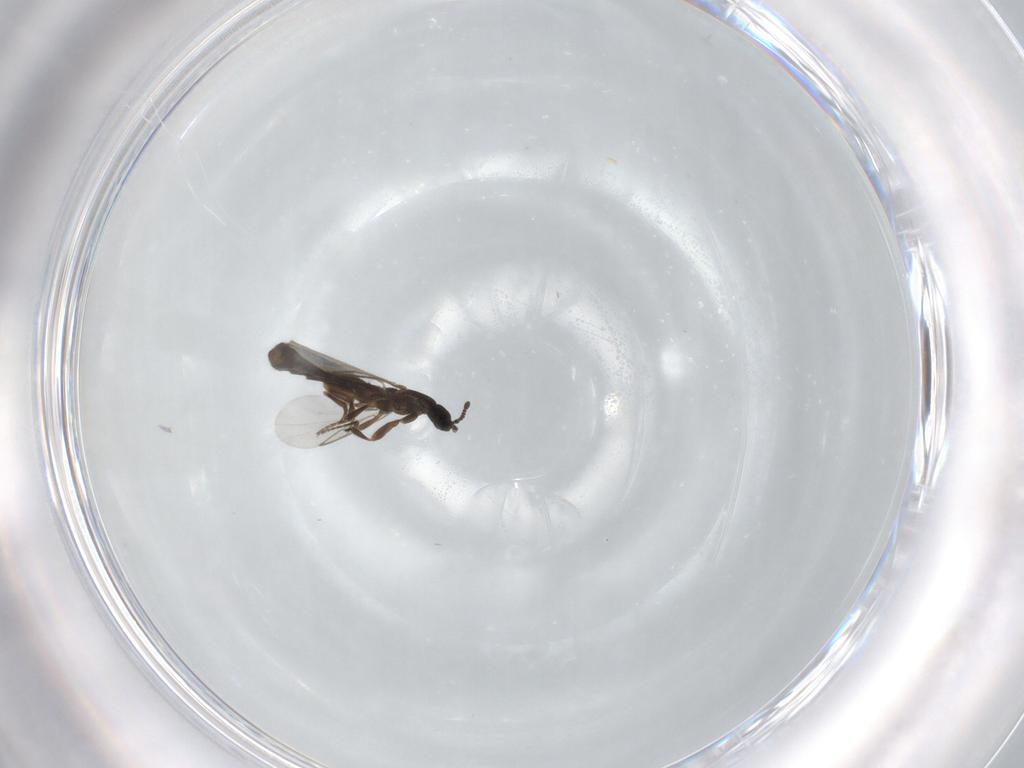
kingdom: Animalia
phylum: Arthropoda
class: Insecta
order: Diptera
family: Scatopsidae
